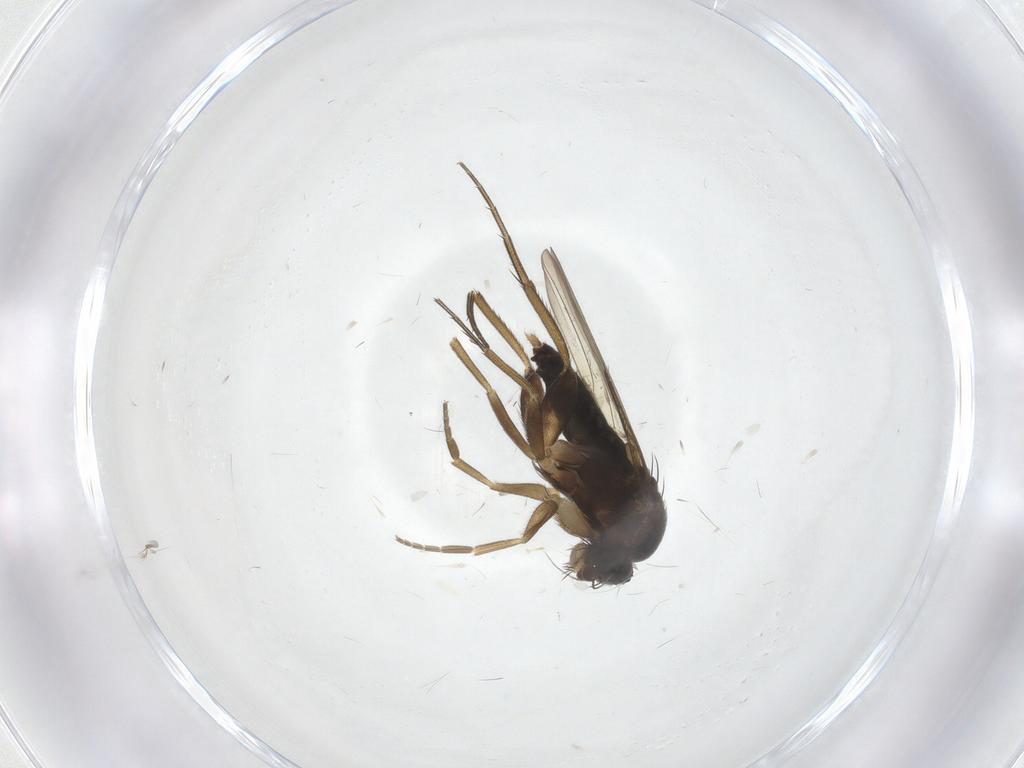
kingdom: Animalia
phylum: Arthropoda
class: Insecta
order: Diptera
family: Phoridae
